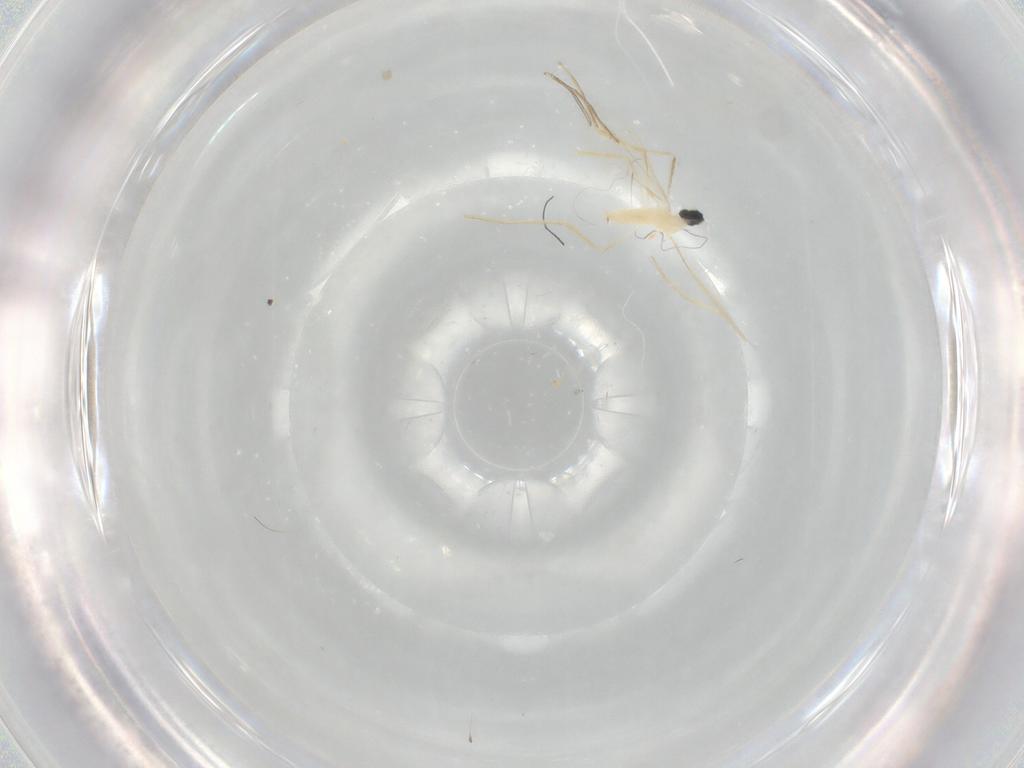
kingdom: Animalia
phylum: Arthropoda
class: Insecta
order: Diptera
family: Cecidomyiidae
